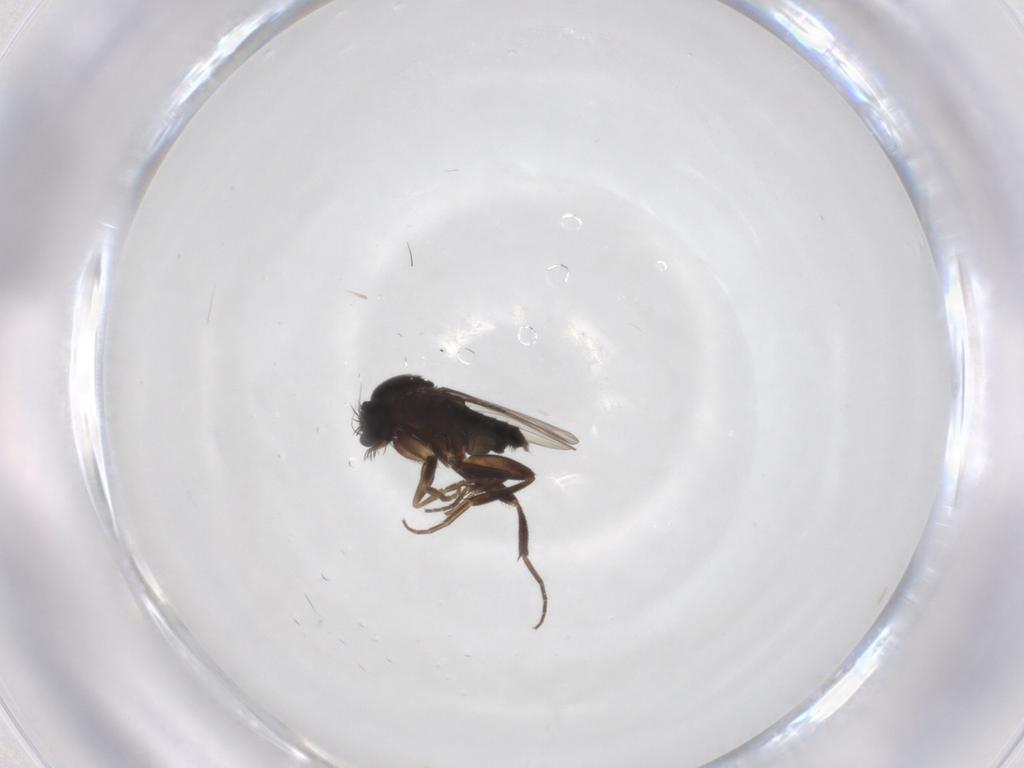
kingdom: Animalia
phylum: Arthropoda
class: Insecta
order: Diptera
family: Phoridae
